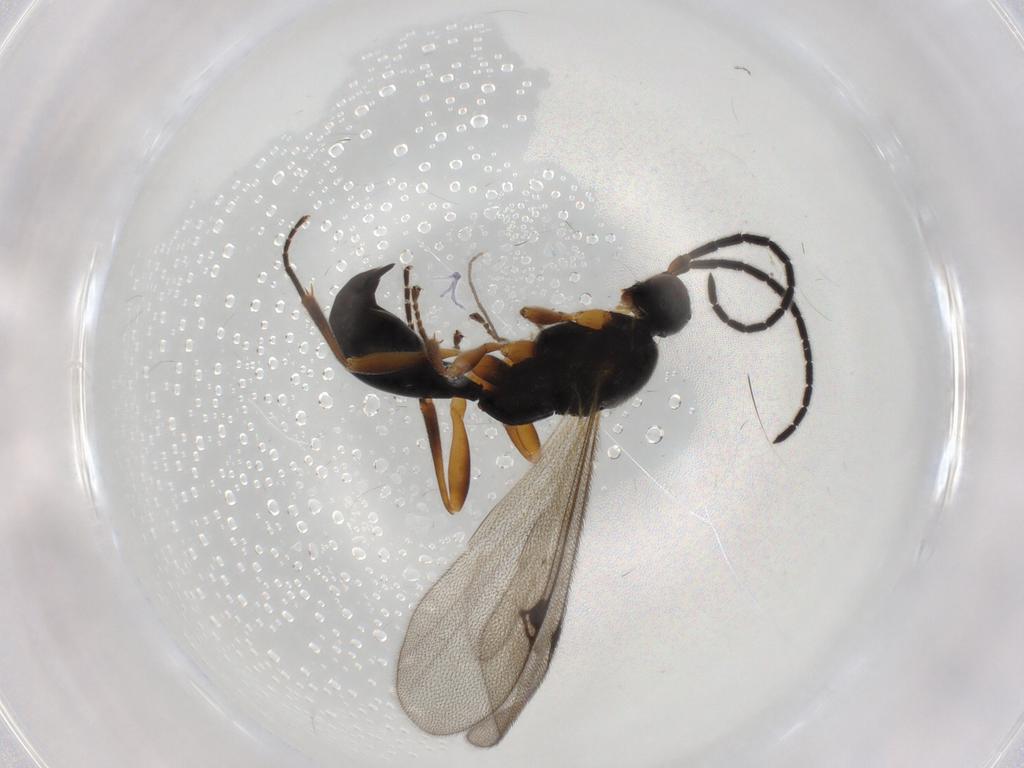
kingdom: Animalia
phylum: Arthropoda
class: Insecta
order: Hymenoptera
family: Proctotrupidae
